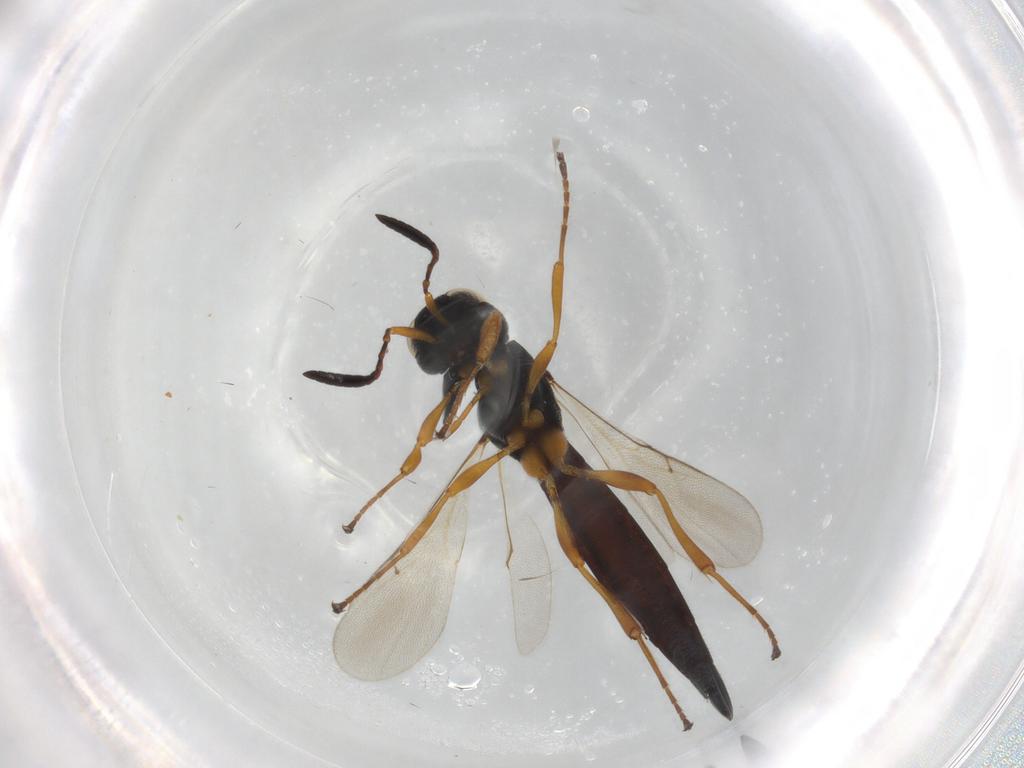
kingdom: Animalia
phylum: Arthropoda
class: Insecta
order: Hymenoptera
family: Scelionidae
